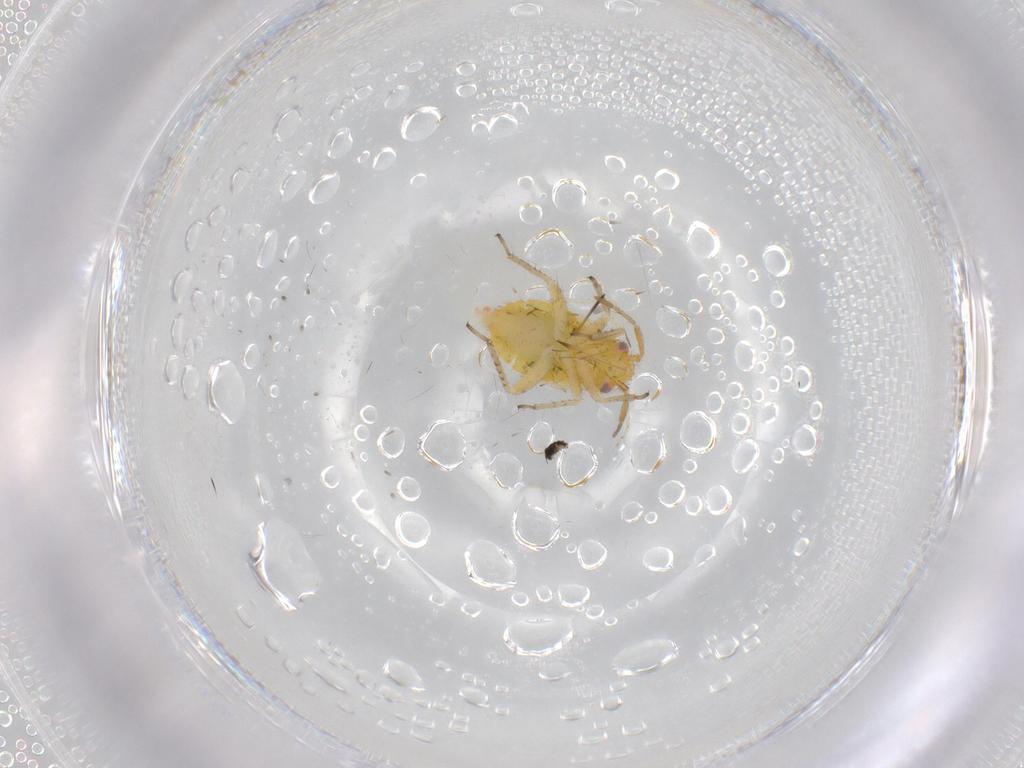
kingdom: Animalia
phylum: Arthropoda
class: Insecta
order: Hemiptera
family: Miridae
